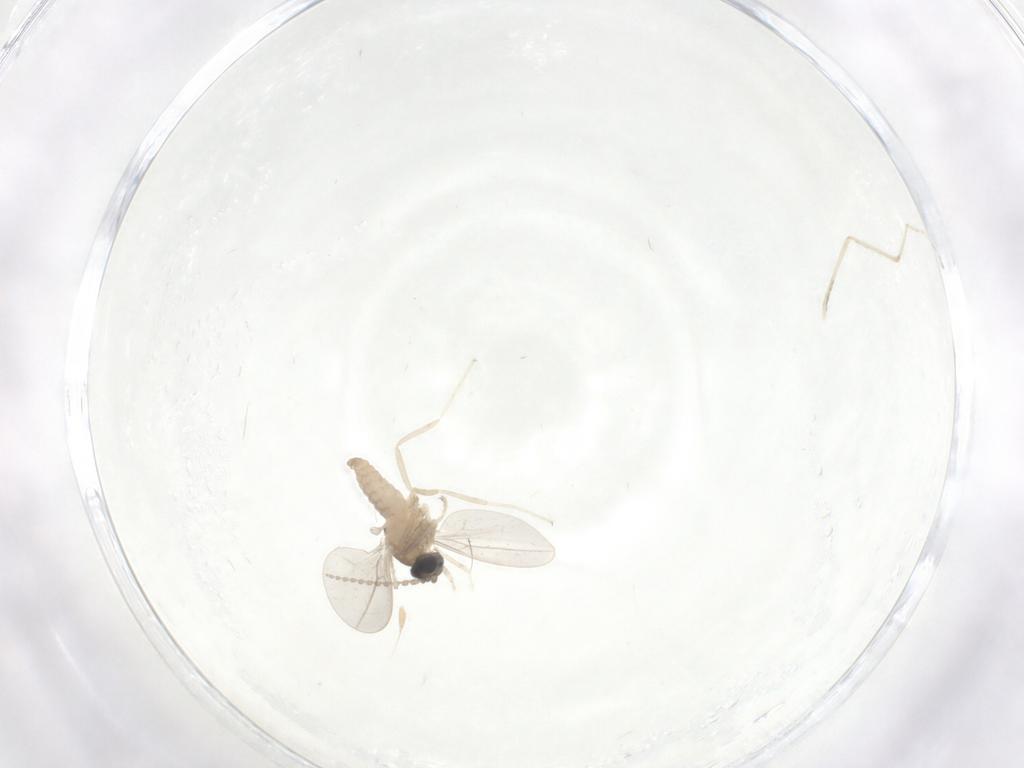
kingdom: Animalia
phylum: Arthropoda
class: Insecta
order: Diptera
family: Cecidomyiidae
